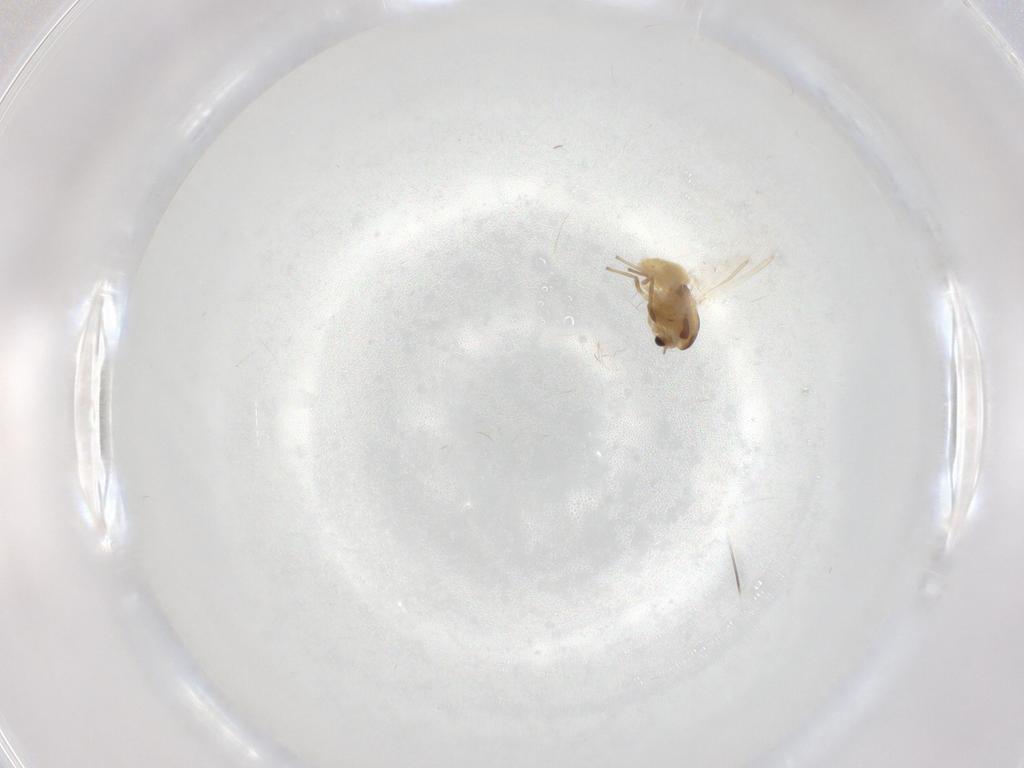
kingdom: Animalia
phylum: Arthropoda
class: Insecta
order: Diptera
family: Chironomidae
